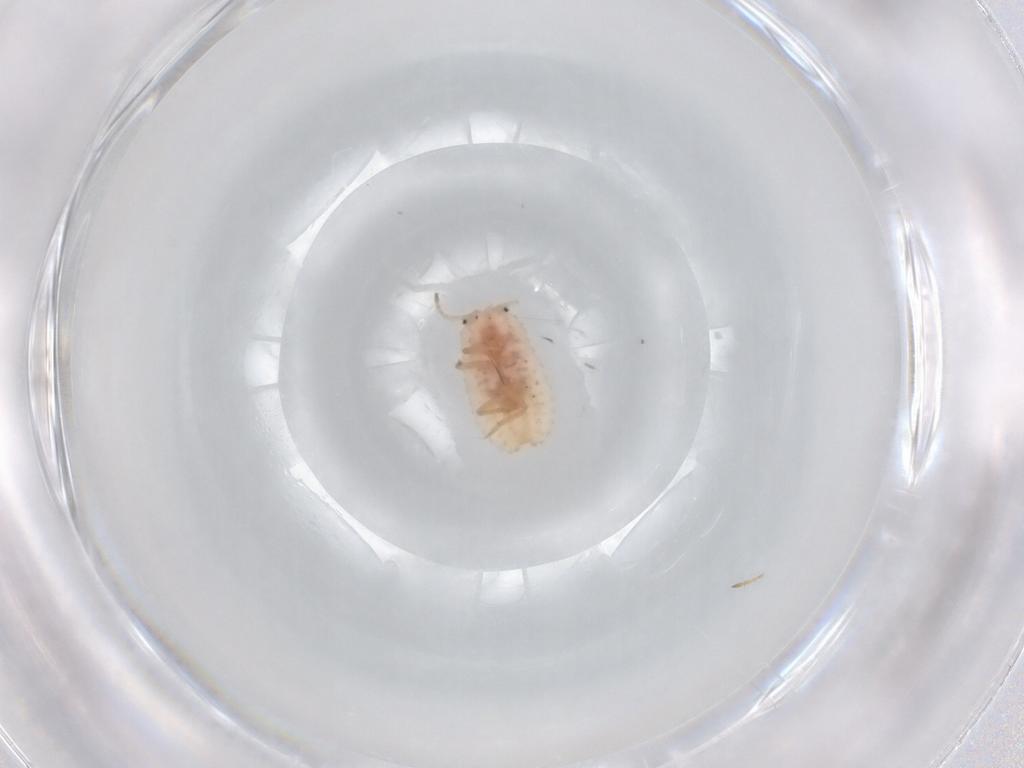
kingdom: Animalia
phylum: Arthropoda
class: Insecta
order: Hemiptera
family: Coccoidea_incertae_sedis
